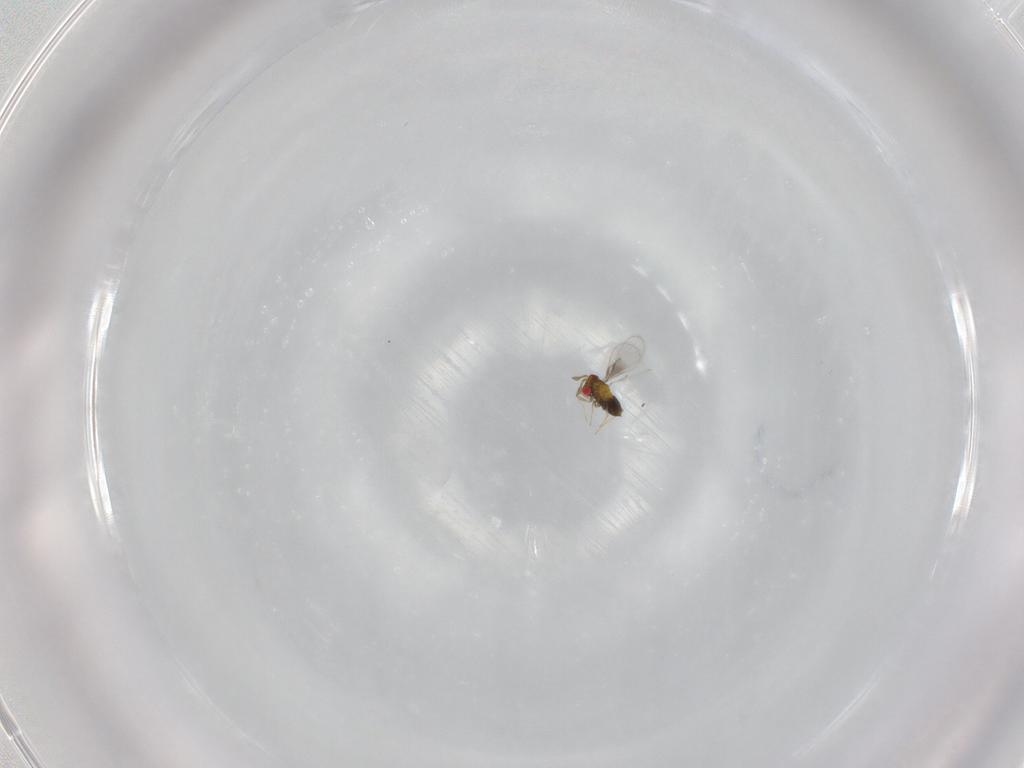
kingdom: Animalia
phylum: Arthropoda
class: Insecta
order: Hymenoptera
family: Trichogrammatidae
